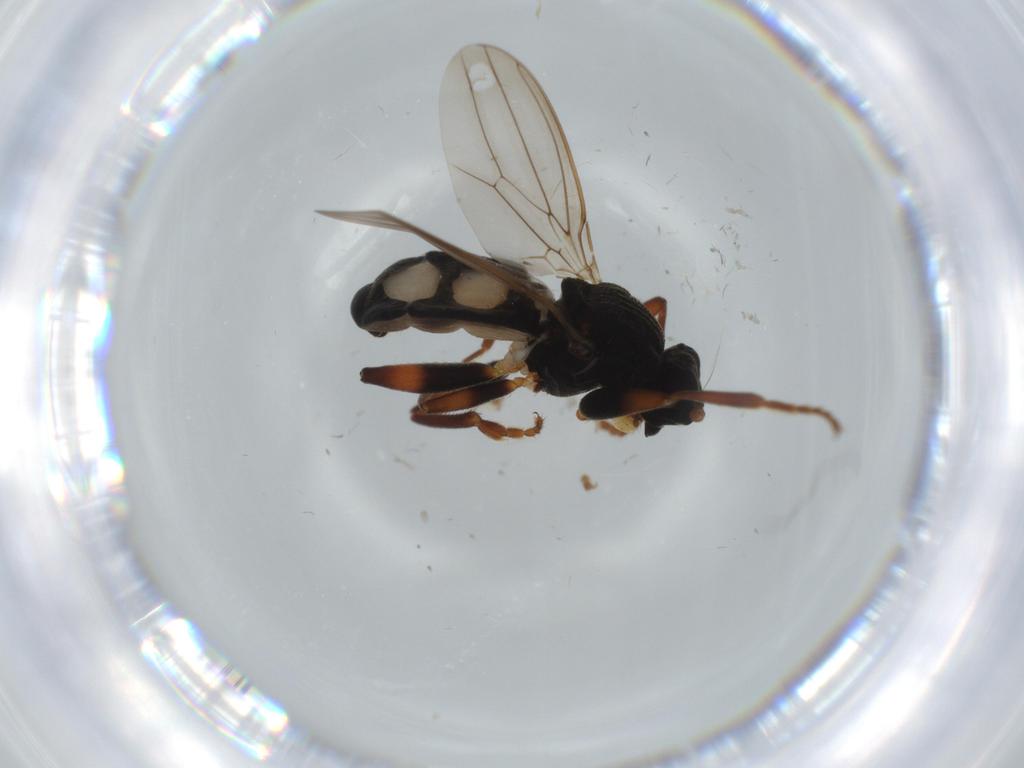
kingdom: Animalia
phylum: Arthropoda
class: Insecta
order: Diptera
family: Sphaeroceridae
